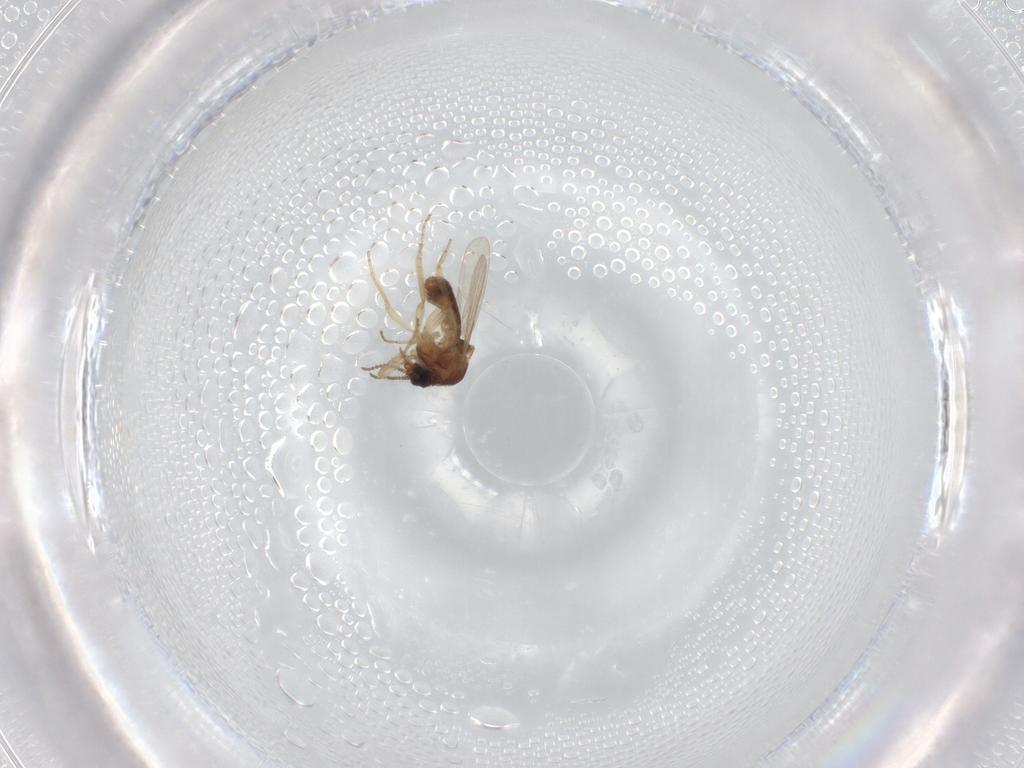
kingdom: Animalia
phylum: Arthropoda
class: Insecta
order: Diptera
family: Ceratopogonidae
